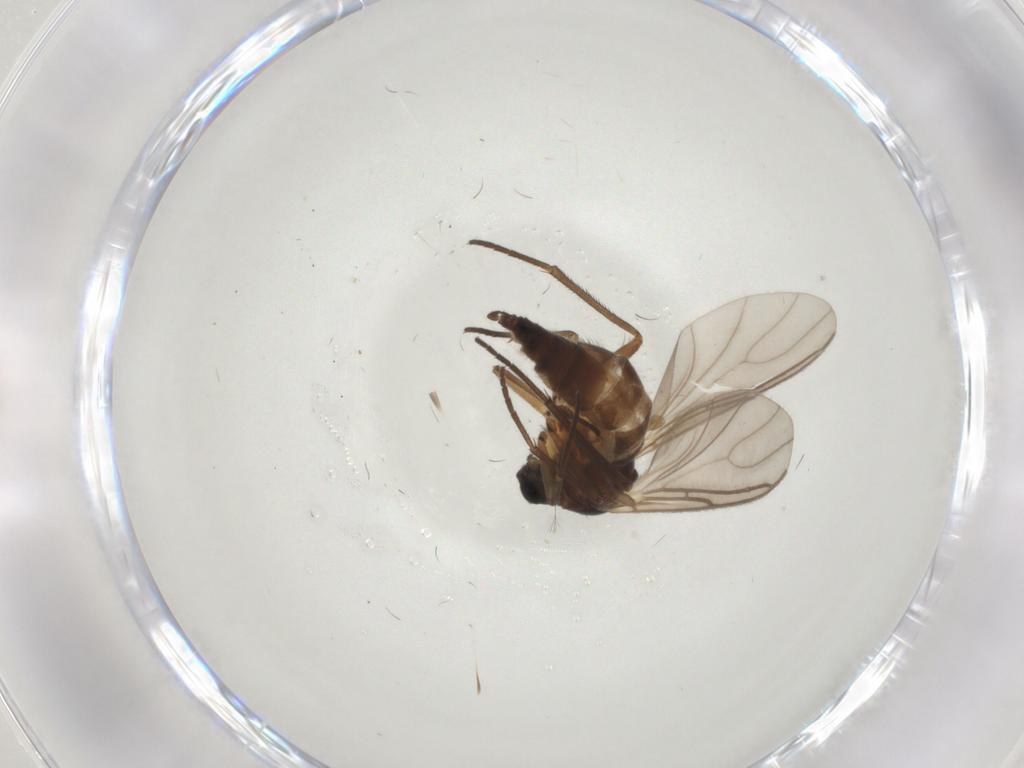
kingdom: Animalia
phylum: Arthropoda
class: Insecta
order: Diptera
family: Sciaridae
